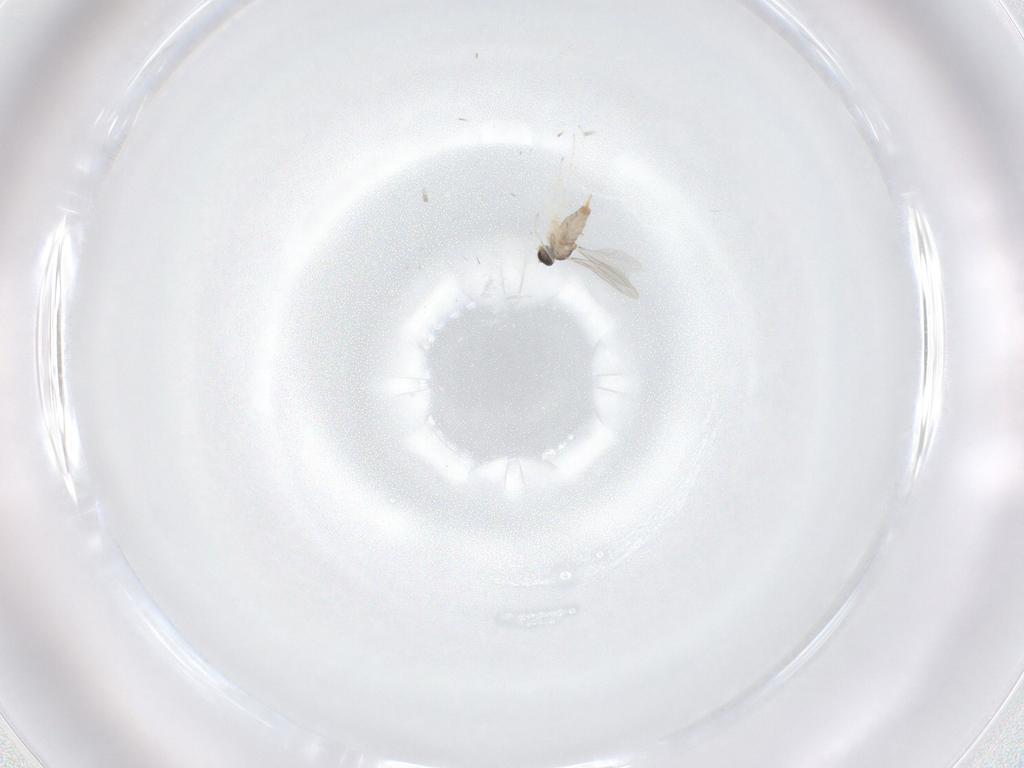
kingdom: Animalia
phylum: Arthropoda
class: Insecta
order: Diptera
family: Cecidomyiidae
